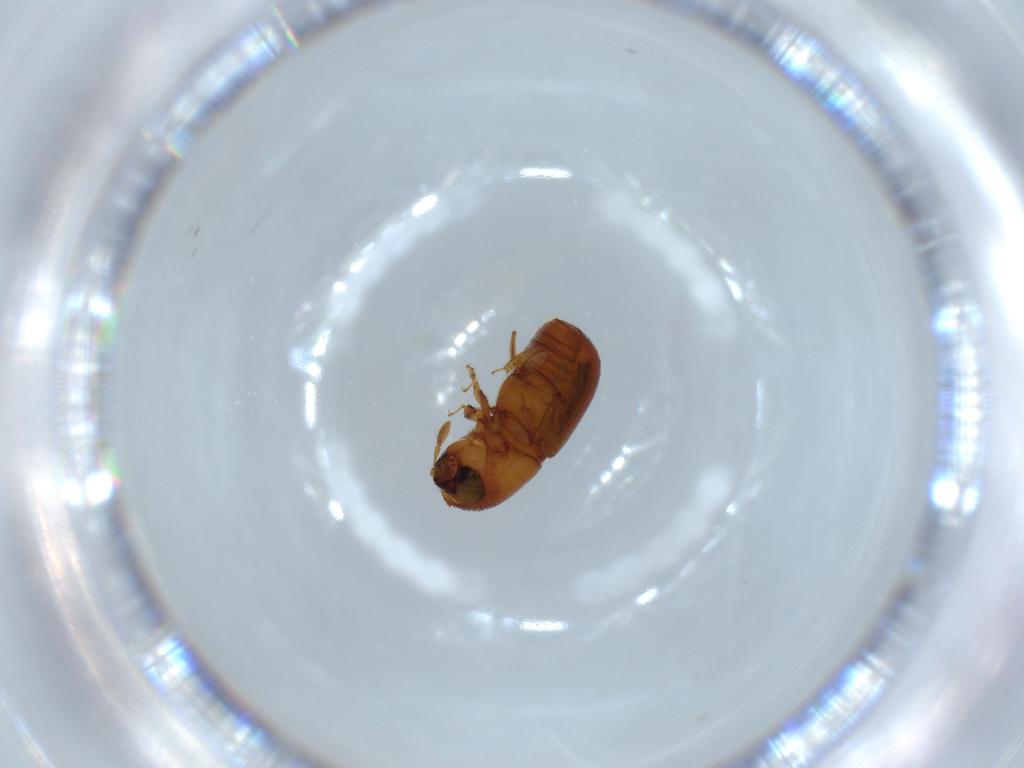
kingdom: Animalia
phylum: Arthropoda
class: Insecta
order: Coleoptera
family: Curculionidae
